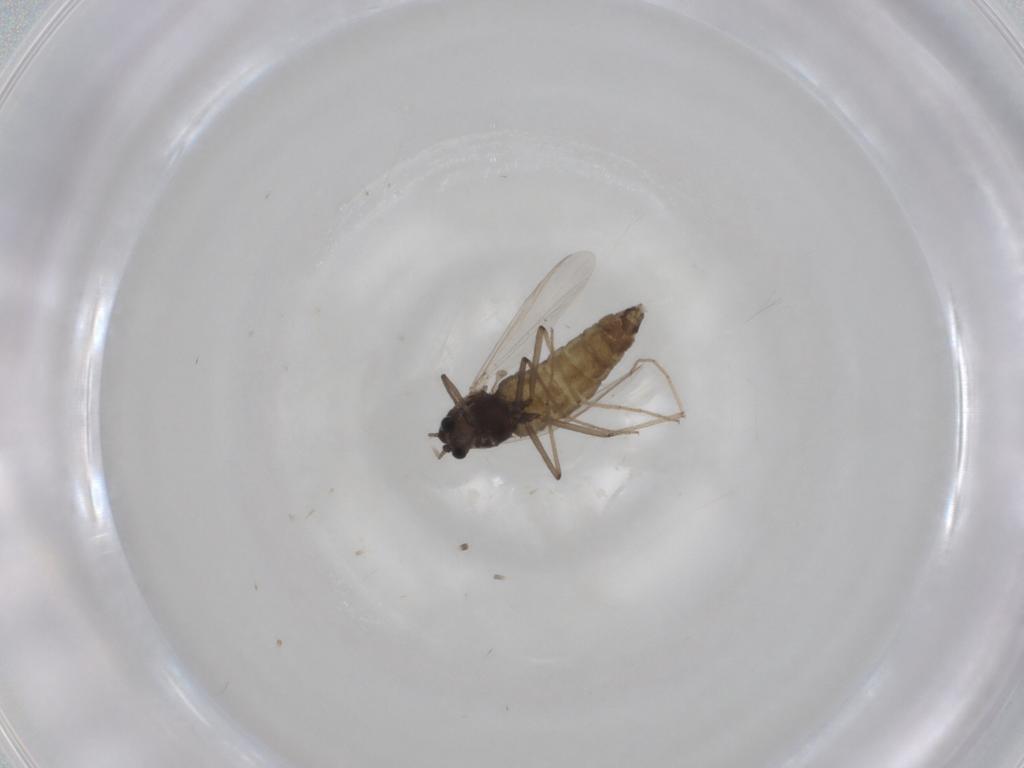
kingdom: Animalia
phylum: Arthropoda
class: Insecta
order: Diptera
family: Chironomidae
